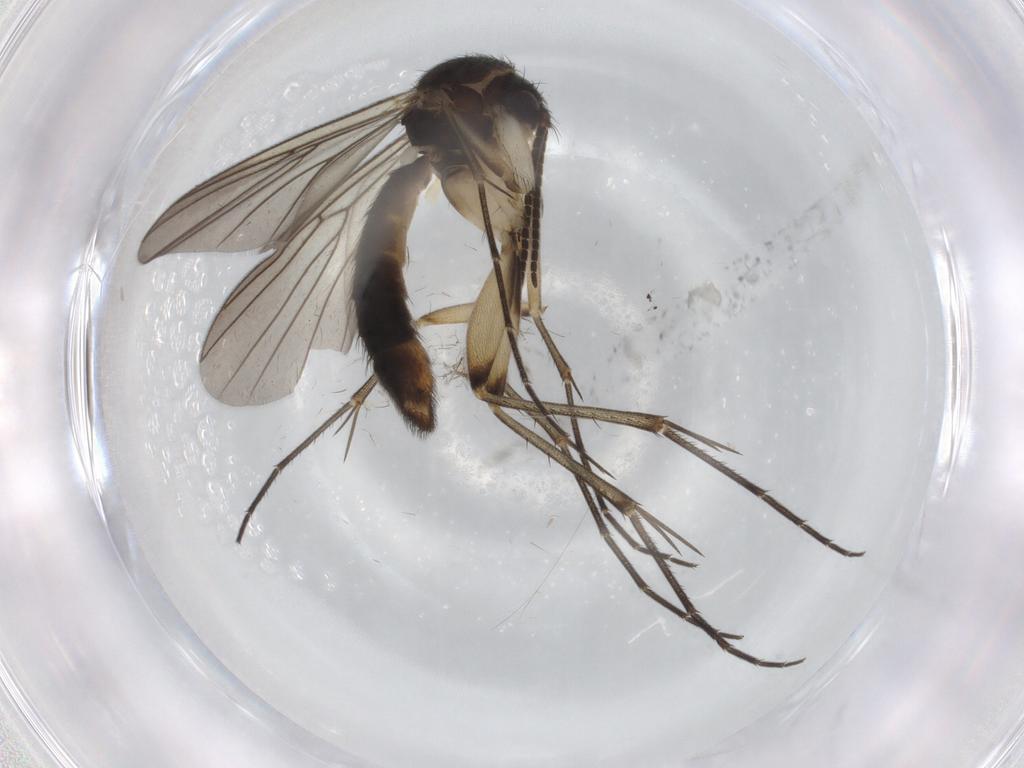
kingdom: Animalia
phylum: Arthropoda
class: Insecta
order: Diptera
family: Sciaridae
